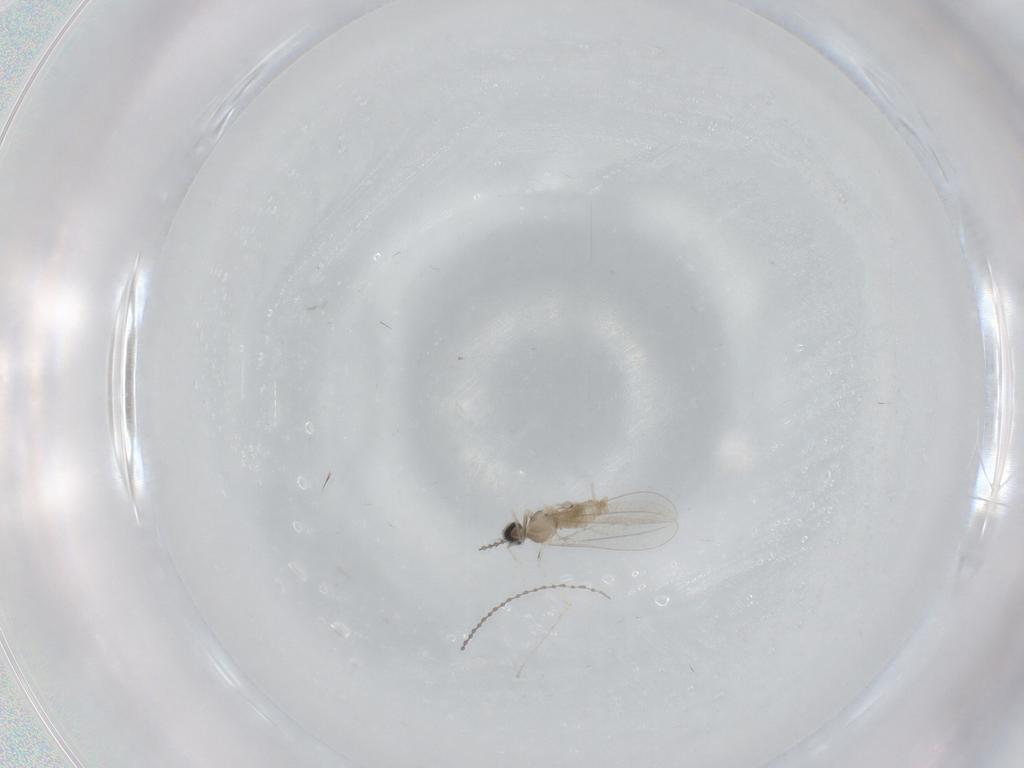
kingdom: Animalia
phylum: Arthropoda
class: Insecta
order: Diptera
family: Cecidomyiidae
